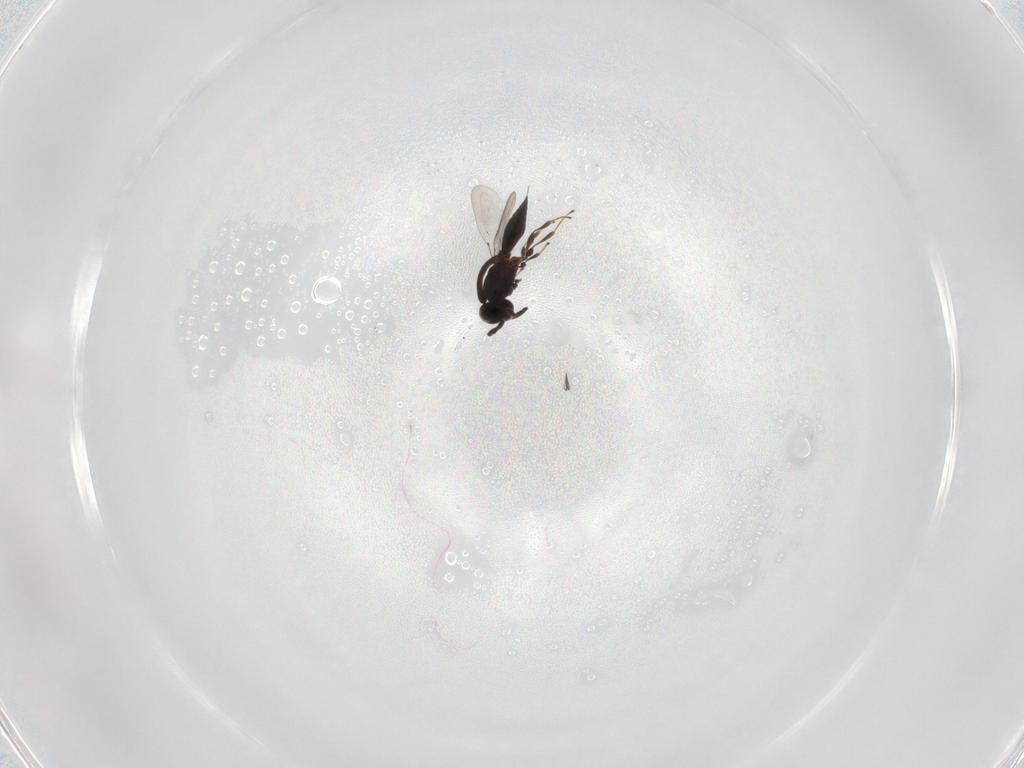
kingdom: Animalia
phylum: Arthropoda
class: Insecta
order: Hymenoptera
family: Platygastridae
